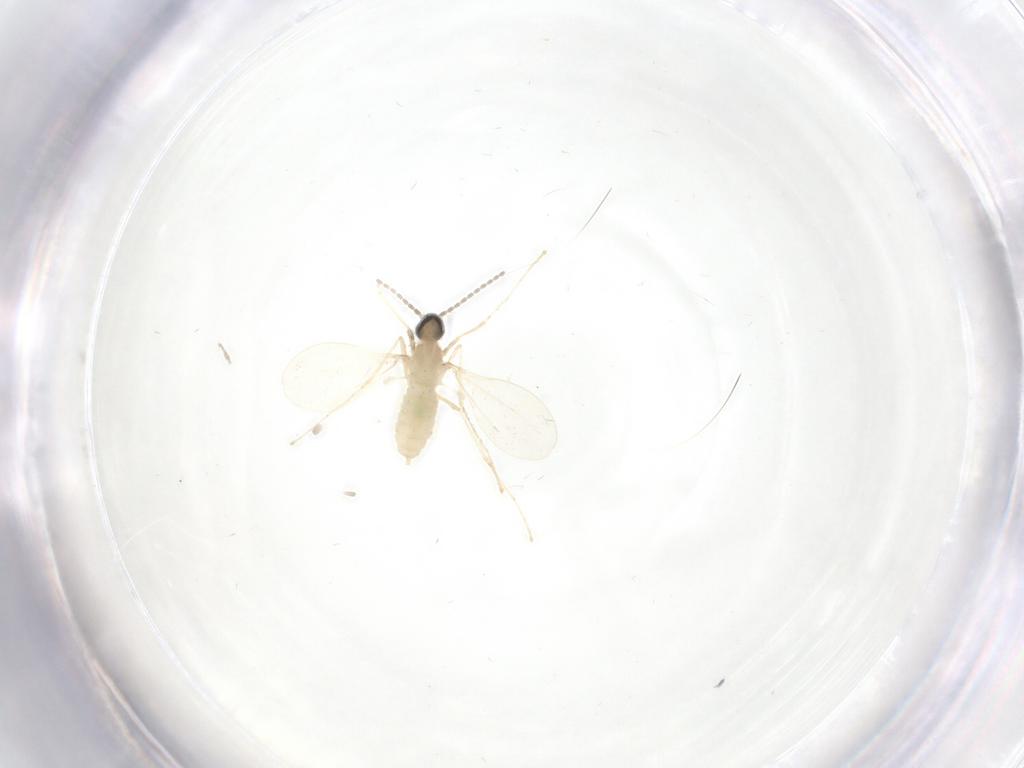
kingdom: Animalia
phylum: Arthropoda
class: Insecta
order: Diptera
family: Cecidomyiidae
